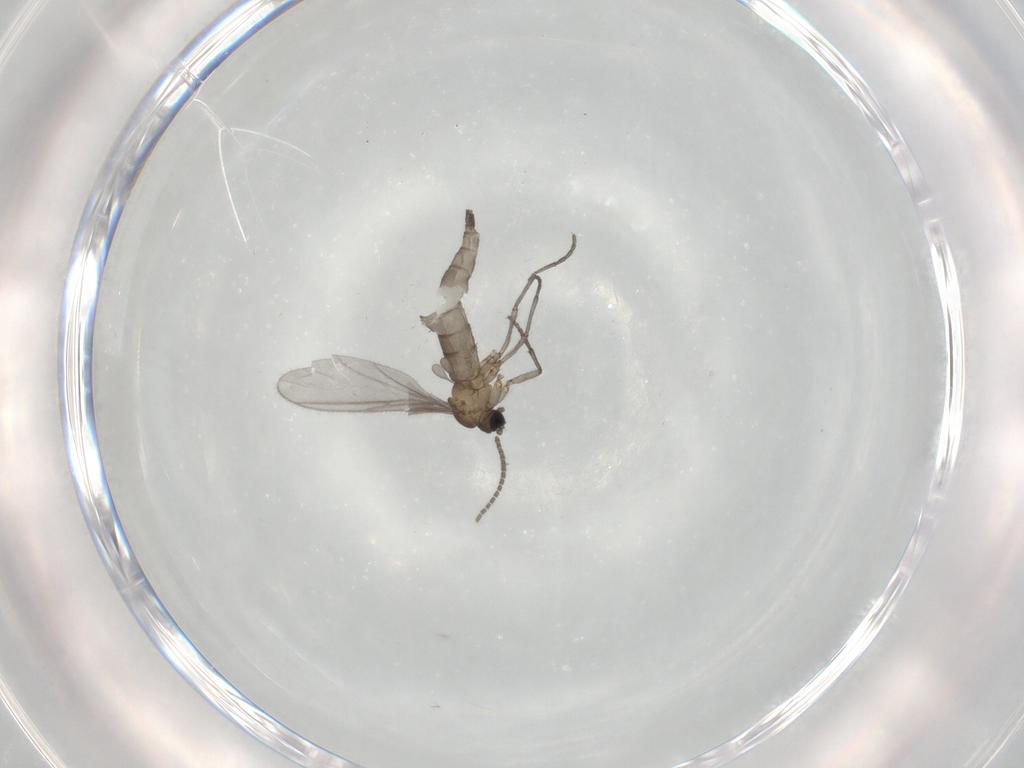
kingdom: Animalia
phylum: Arthropoda
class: Insecta
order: Diptera
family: Sciaridae
